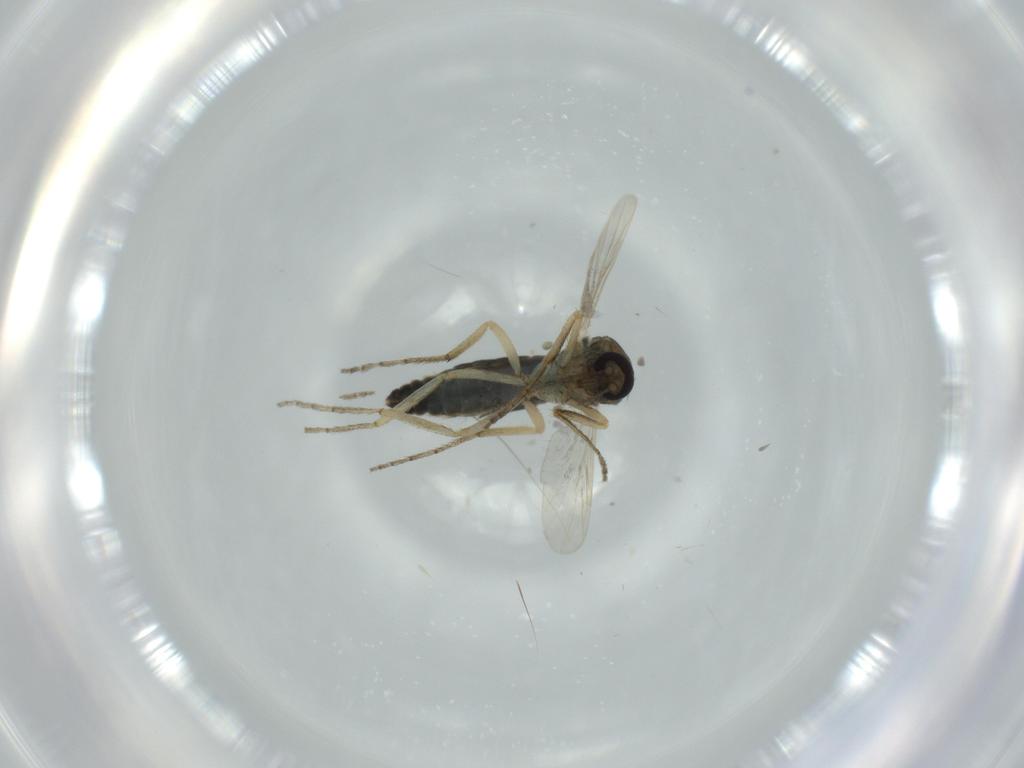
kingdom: Animalia
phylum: Arthropoda
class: Insecta
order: Diptera
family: Ceratopogonidae
